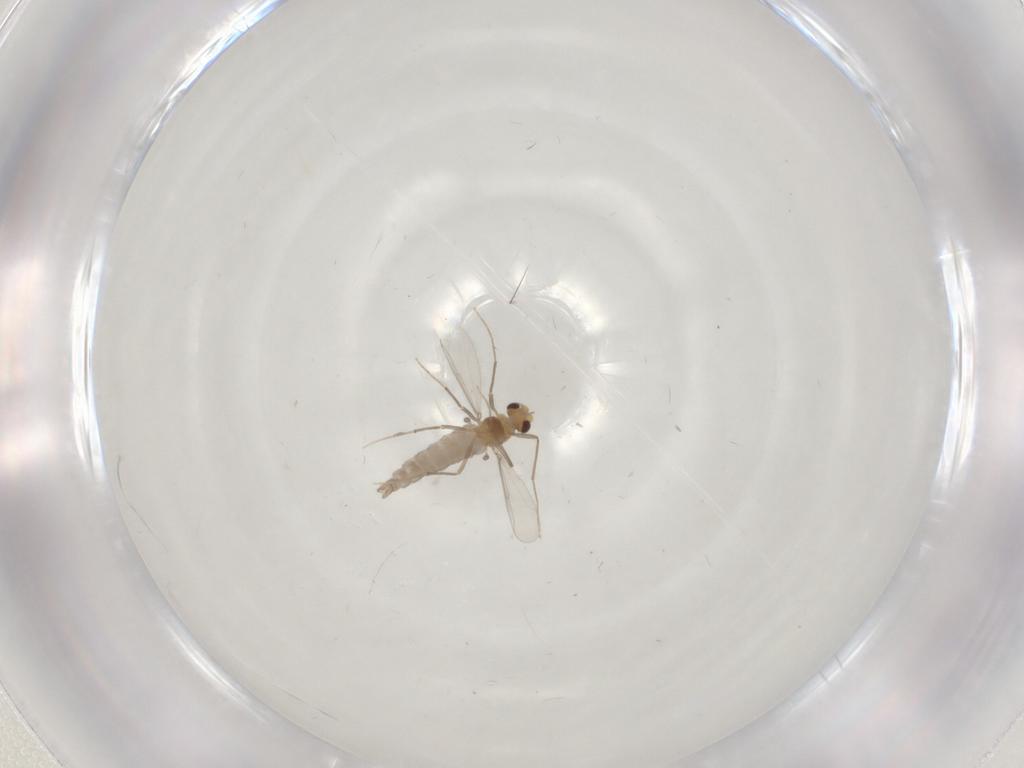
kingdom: Animalia
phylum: Arthropoda
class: Insecta
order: Diptera
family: Chironomidae
